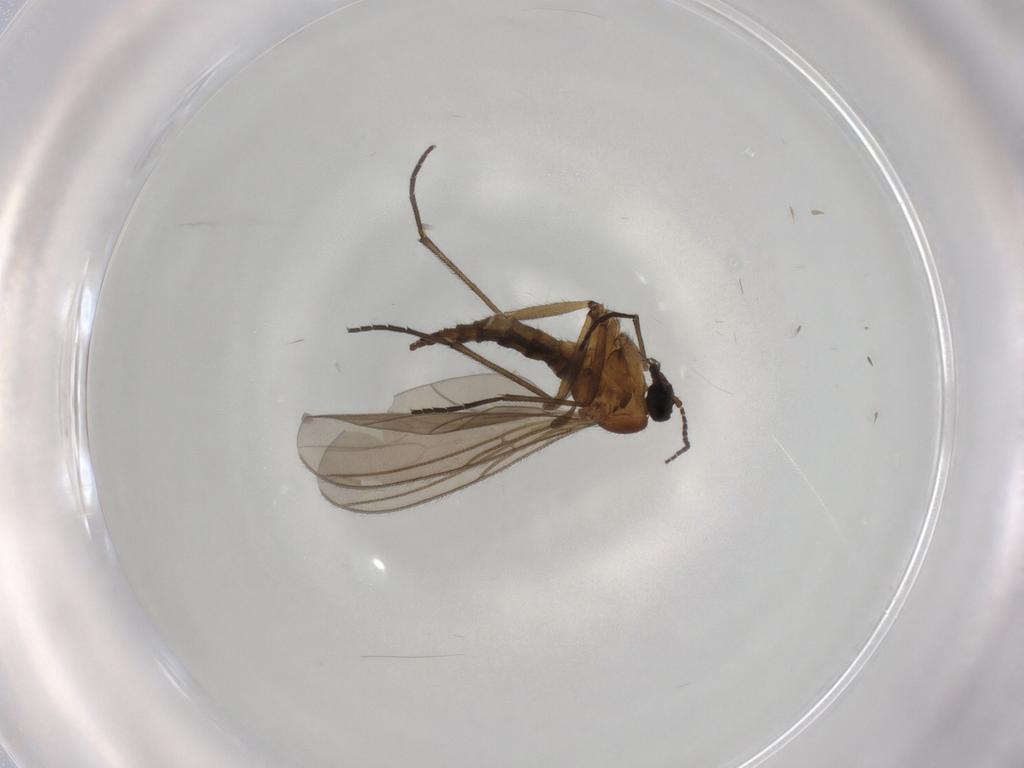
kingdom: Animalia
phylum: Arthropoda
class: Insecta
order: Diptera
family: Sciaridae
